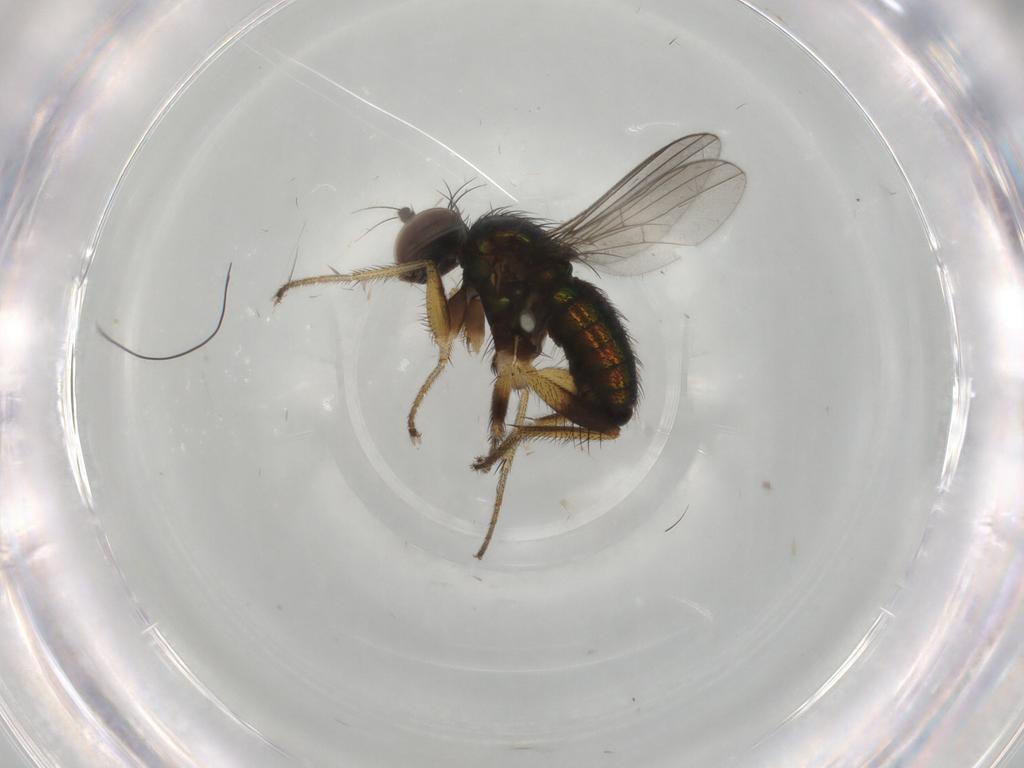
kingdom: Animalia
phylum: Arthropoda
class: Insecta
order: Diptera
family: Dolichopodidae
